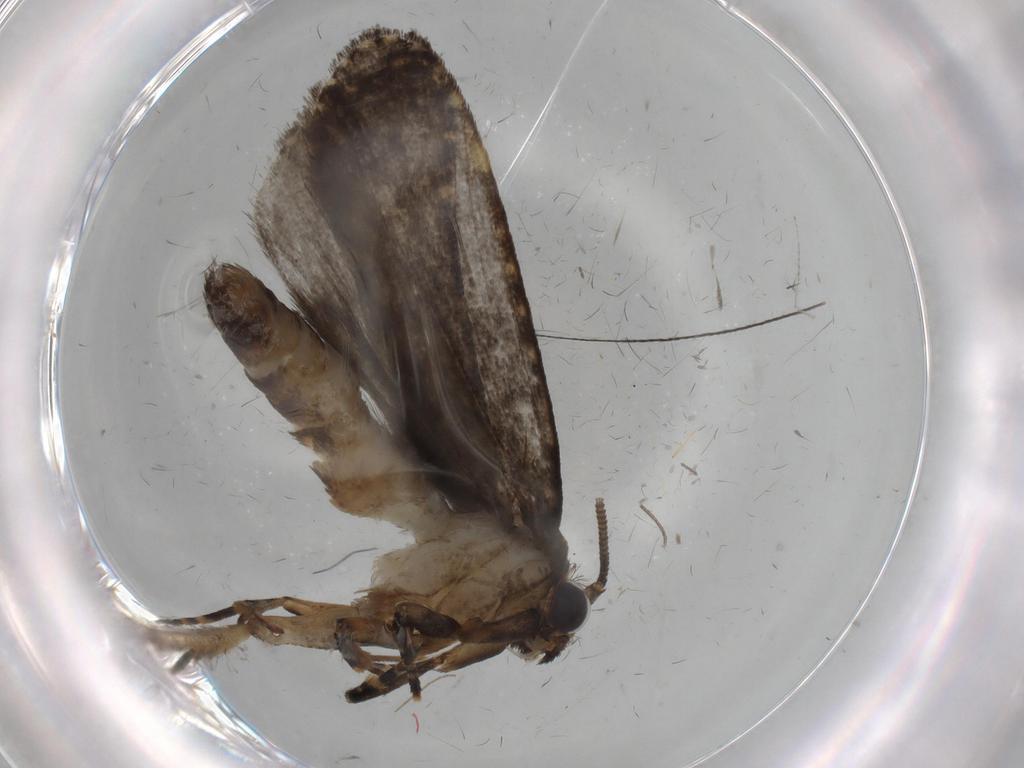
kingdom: Animalia
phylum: Arthropoda
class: Insecta
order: Lepidoptera
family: Tineidae
